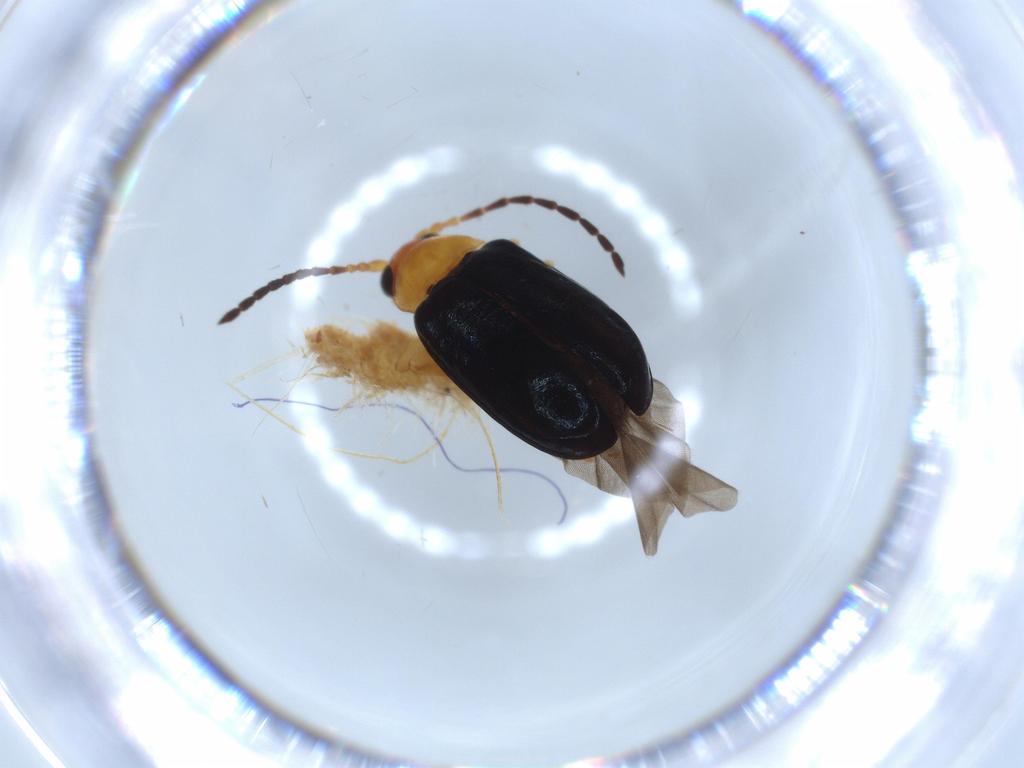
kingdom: Animalia
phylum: Arthropoda
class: Insecta
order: Coleoptera
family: Chrysomelidae
